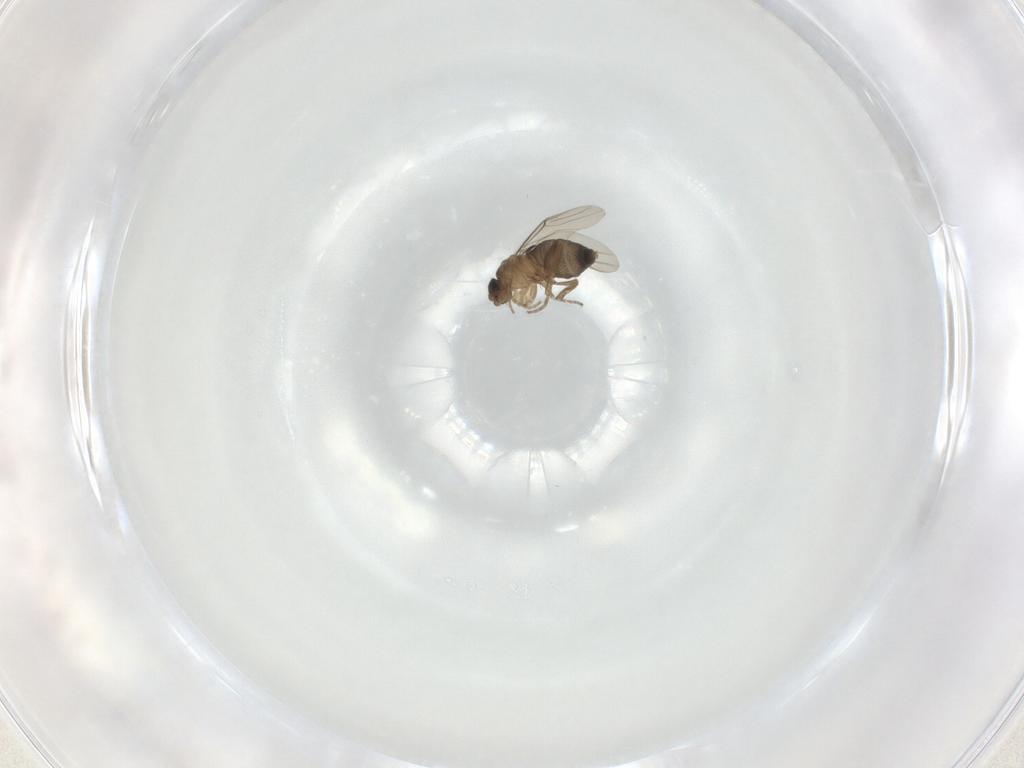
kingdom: Animalia
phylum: Arthropoda
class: Insecta
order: Diptera
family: Phoridae
